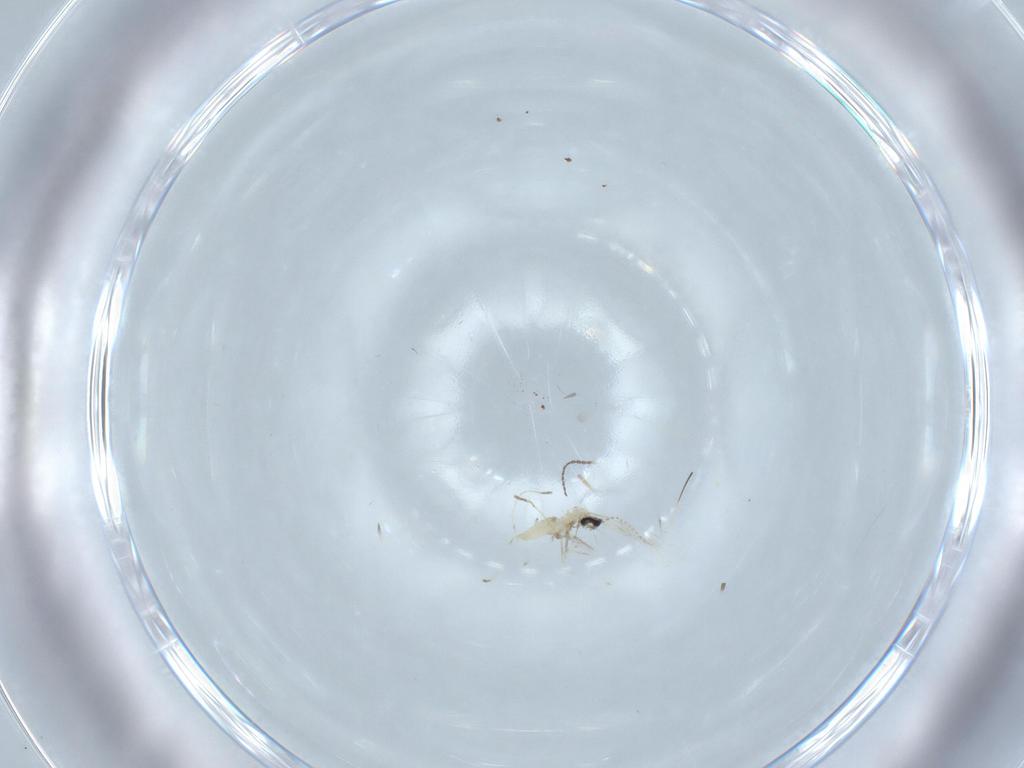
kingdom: Animalia
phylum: Arthropoda
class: Insecta
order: Diptera
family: Cecidomyiidae
